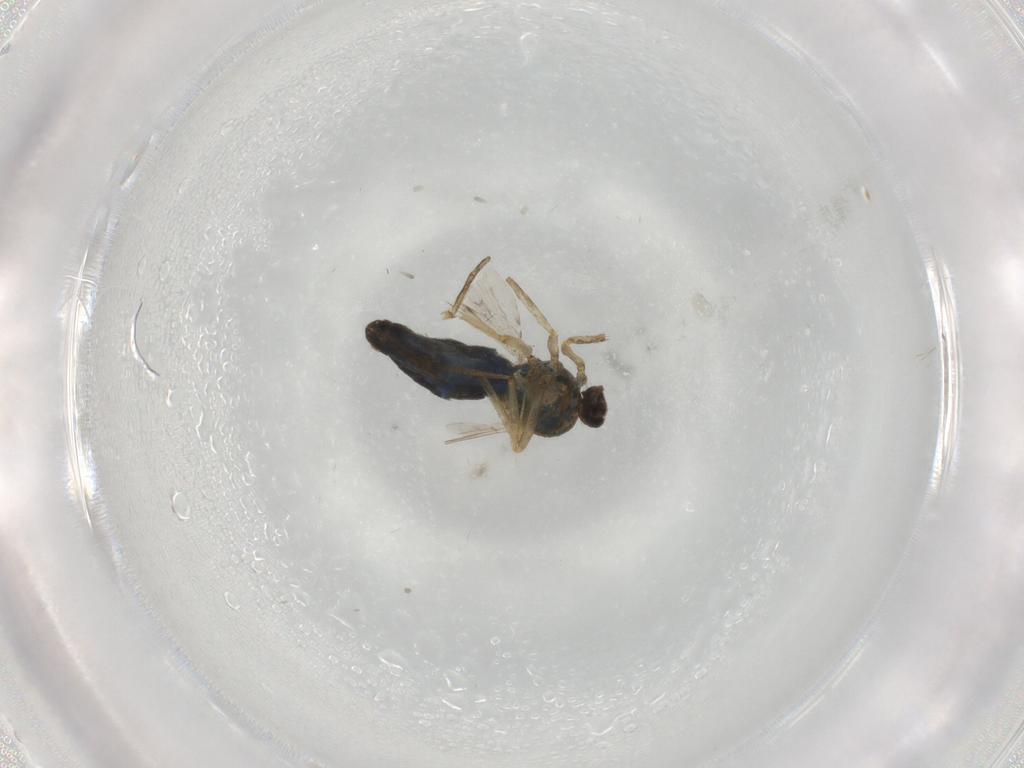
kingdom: Animalia
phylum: Arthropoda
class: Insecta
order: Diptera
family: Ceratopogonidae
